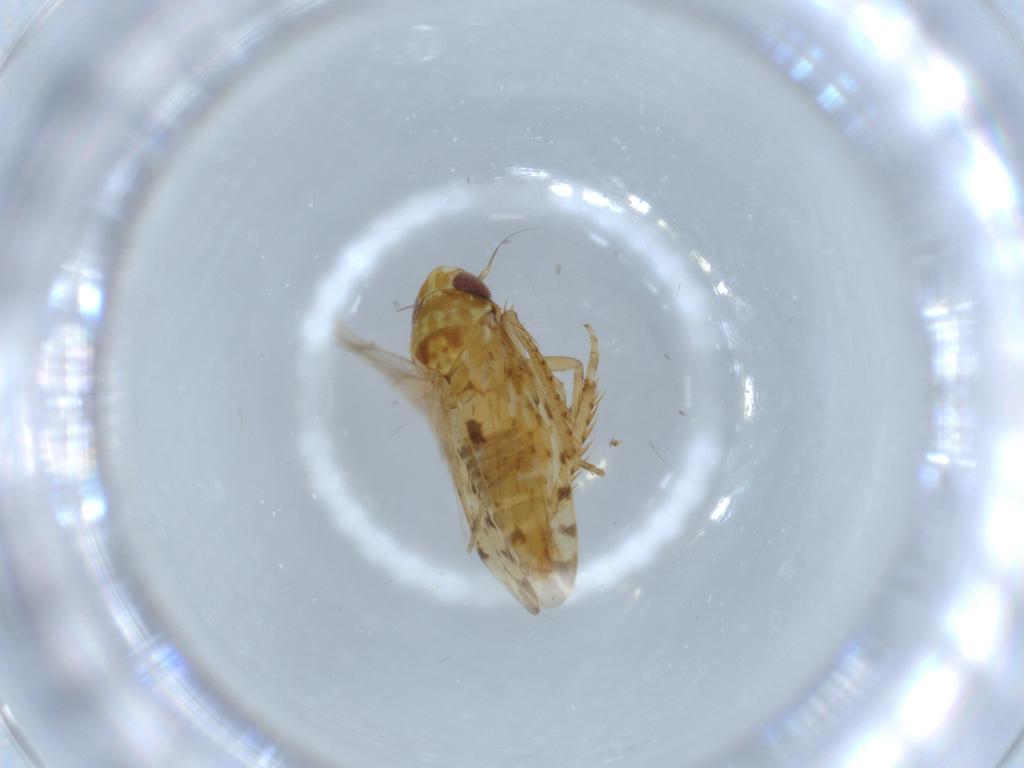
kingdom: Animalia
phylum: Arthropoda
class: Insecta
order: Hemiptera
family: Cicadellidae
